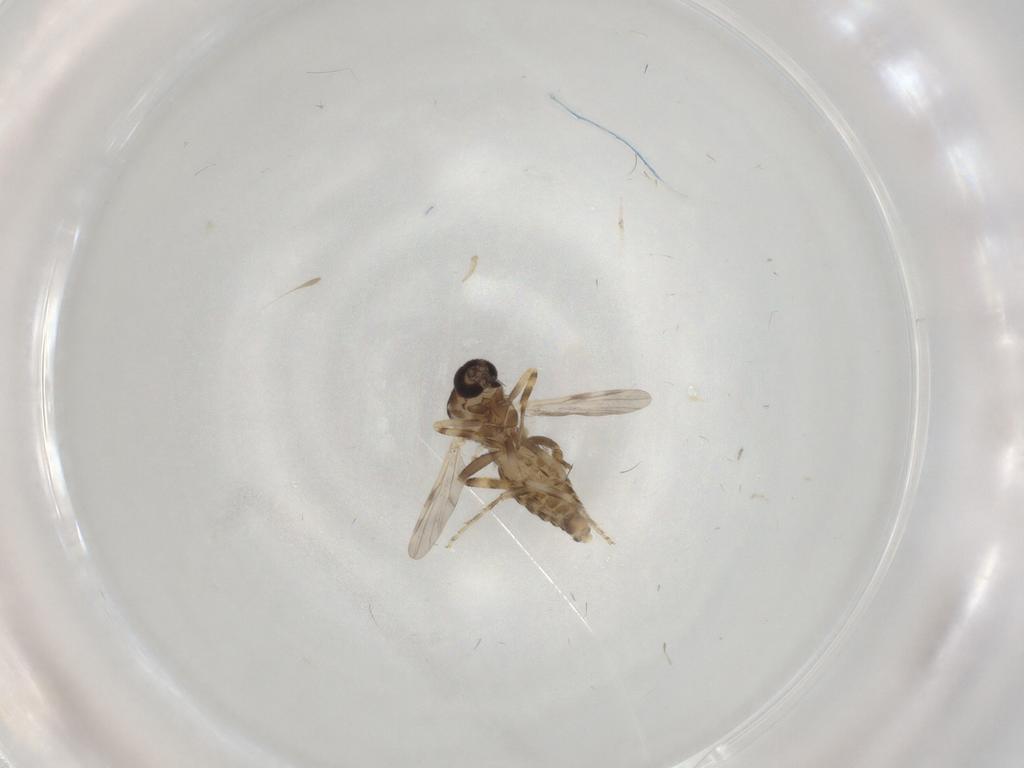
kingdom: Animalia
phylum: Arthropoda
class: Insecta
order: Diptera
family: Ceratopogonidae
